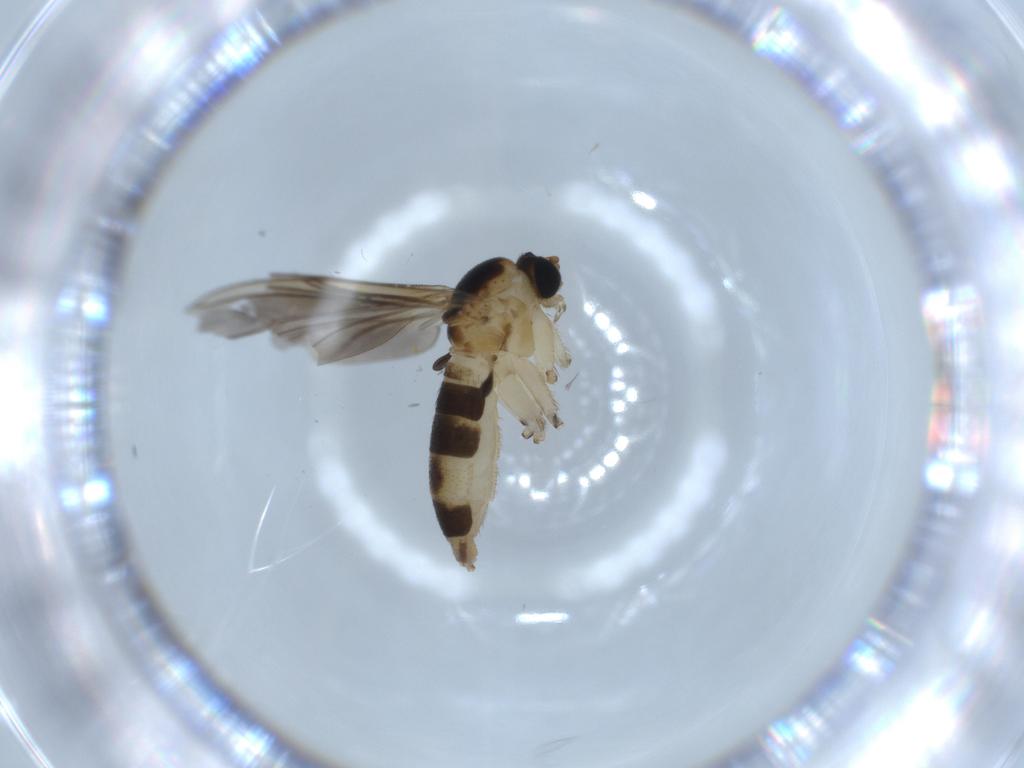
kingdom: Animalia
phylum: Arthropoda
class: Insecta
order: Diptera
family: Sciaridae
